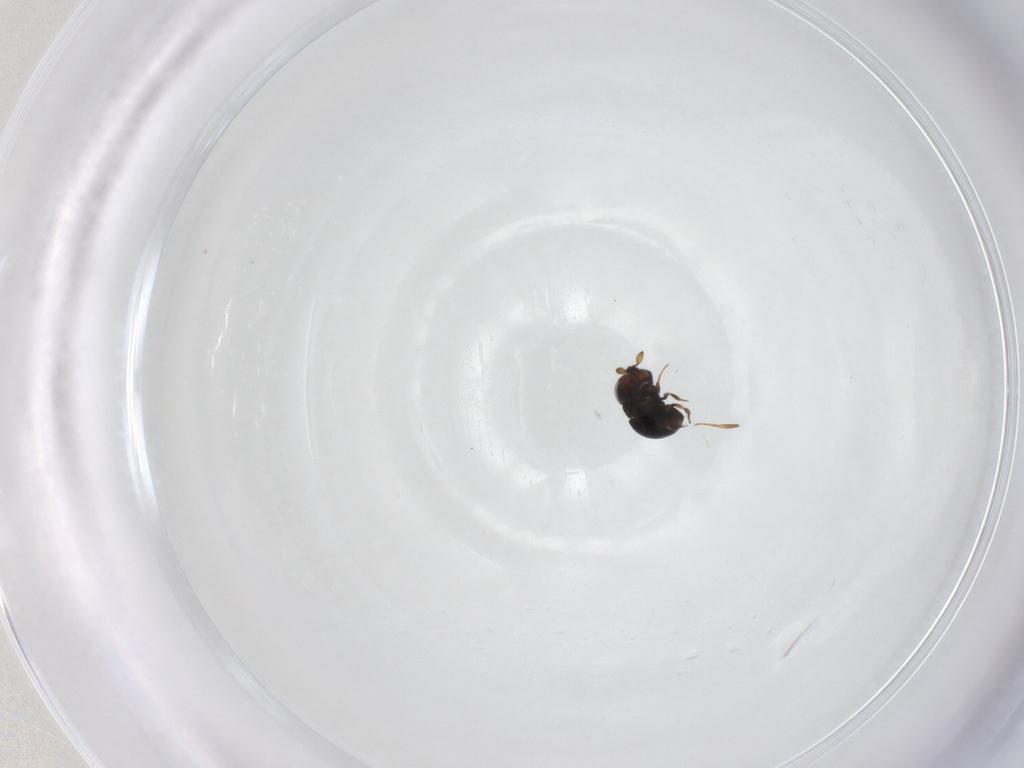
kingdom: Animalia
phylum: Arthropoda
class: Insecta
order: Hymenoptera
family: Scelionidae
